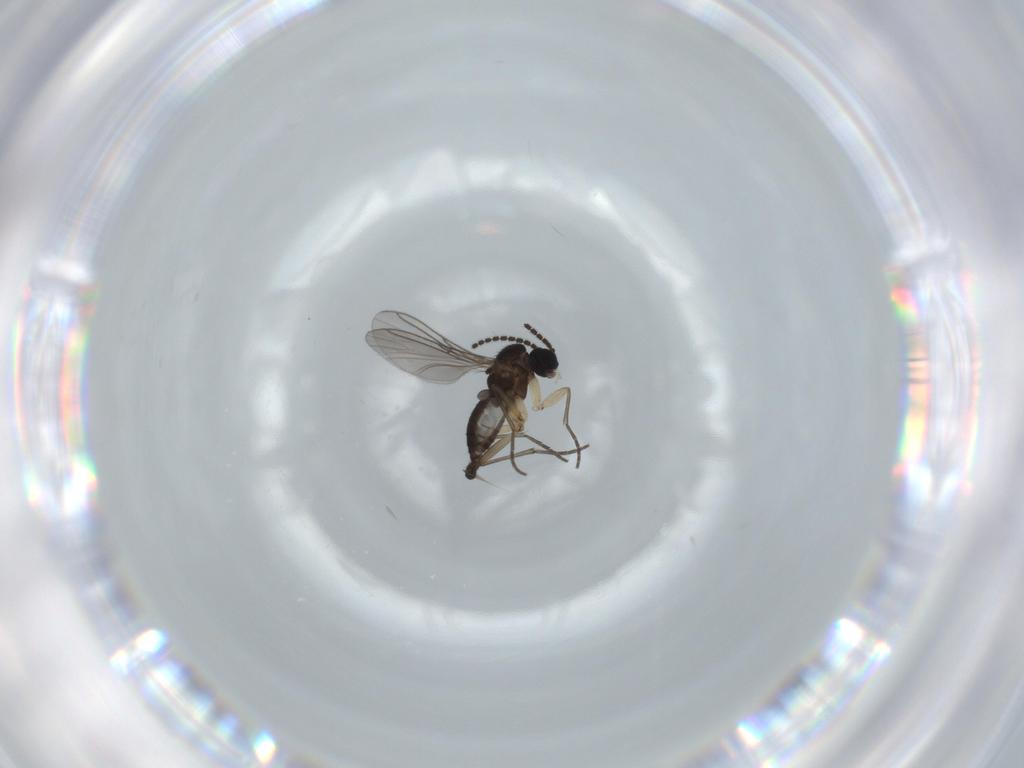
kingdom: Animalia
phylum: Arthropoda
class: Insecta
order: Diptera
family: Sciaridae
